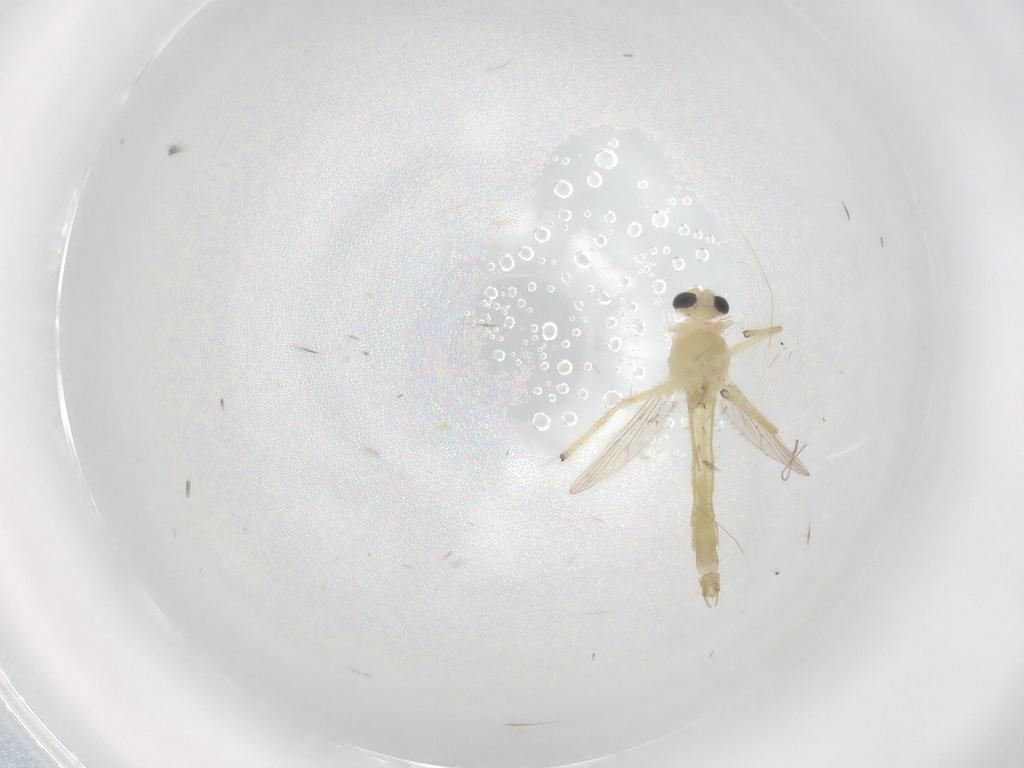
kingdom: Animalia
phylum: Arthropoda
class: Insecta
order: Diptera
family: Chironomidae
